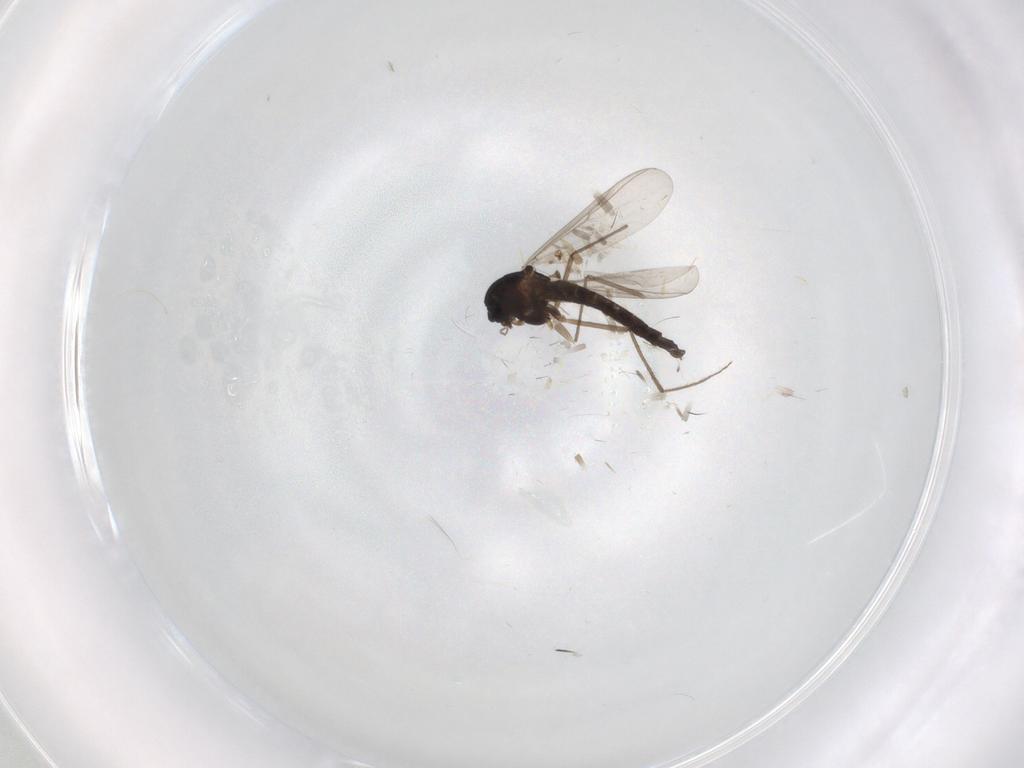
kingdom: Animalia
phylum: Arthropoda
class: Insecta
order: Diptera
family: Chironomidae
